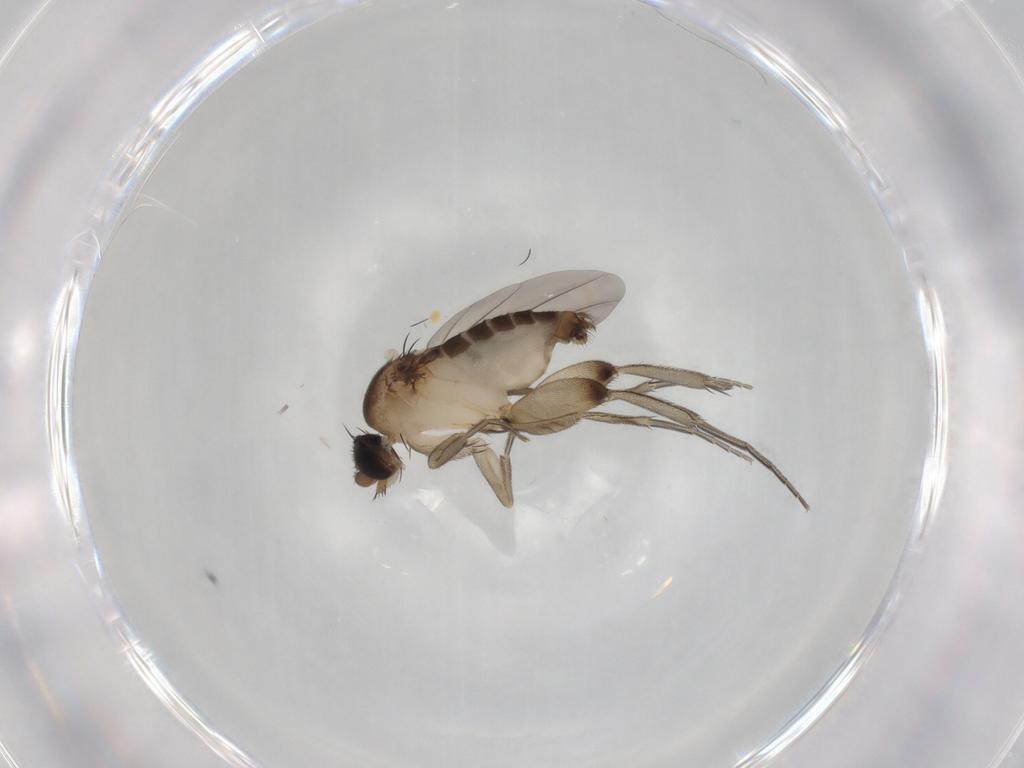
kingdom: Animalia
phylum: Arthropoda
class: Insecta
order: Diptera
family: Phoridae
